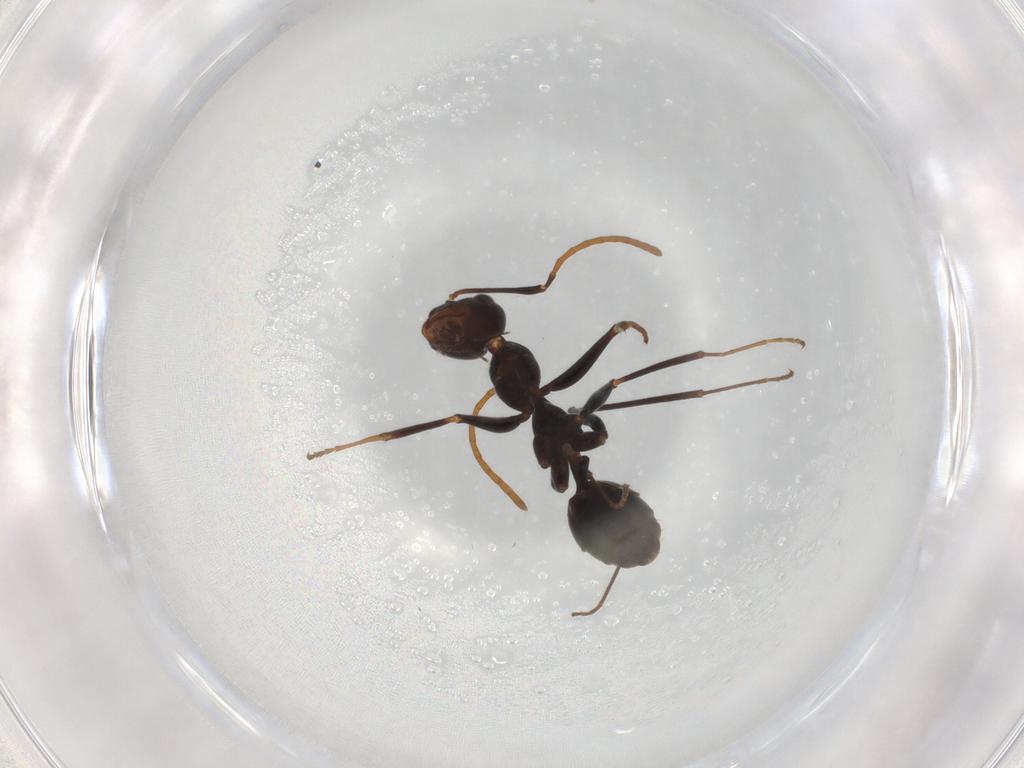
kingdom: Animalia
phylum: Arthropoda
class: Insecta
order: Hymenoptera
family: Formicidae
